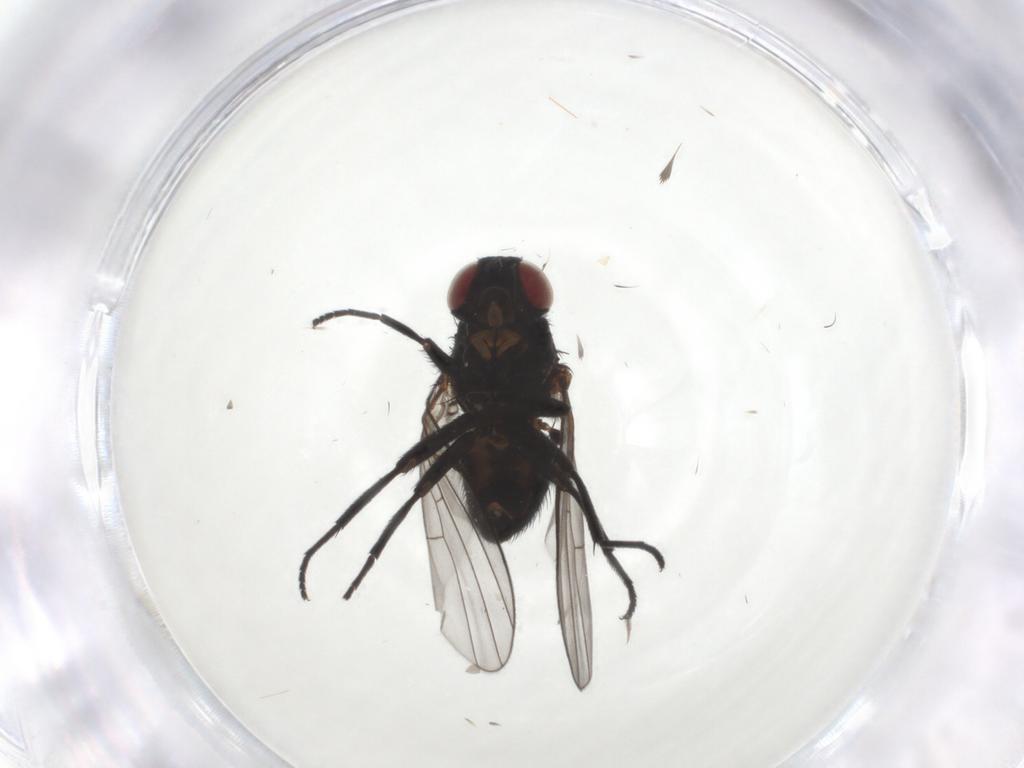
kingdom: Animalia
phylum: Arthropoda
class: Insecta
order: Diptera
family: Agromyzidae
